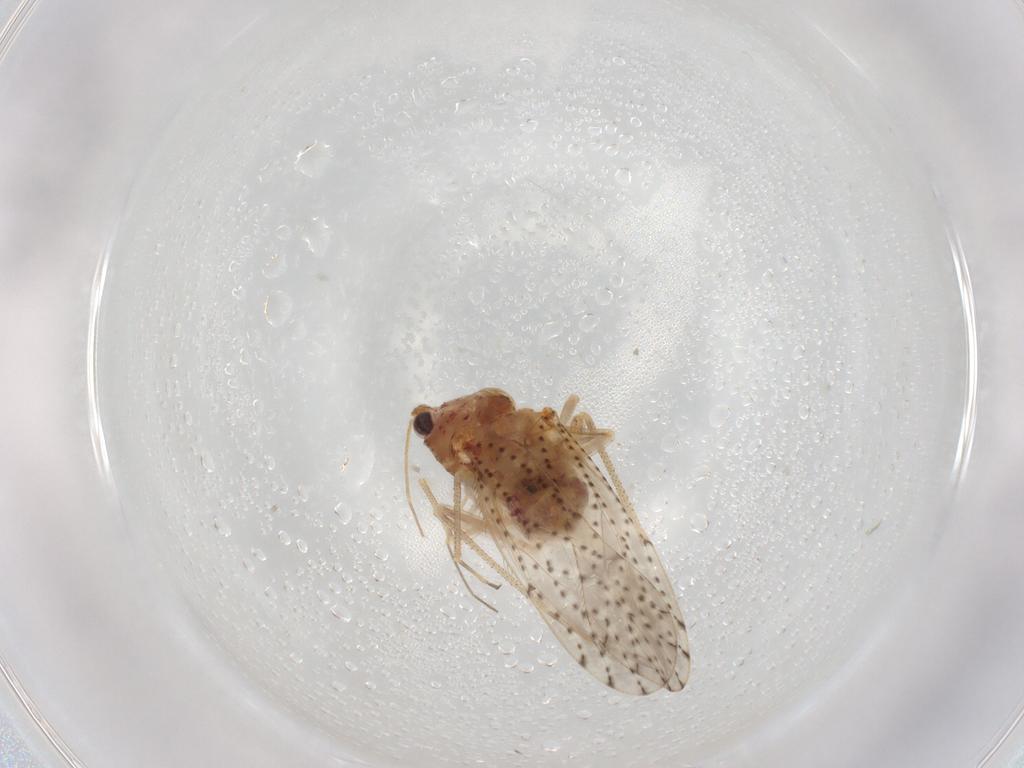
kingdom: Animalia
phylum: Arthropoda
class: Insecta
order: Psocodea
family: Philotarsidae
